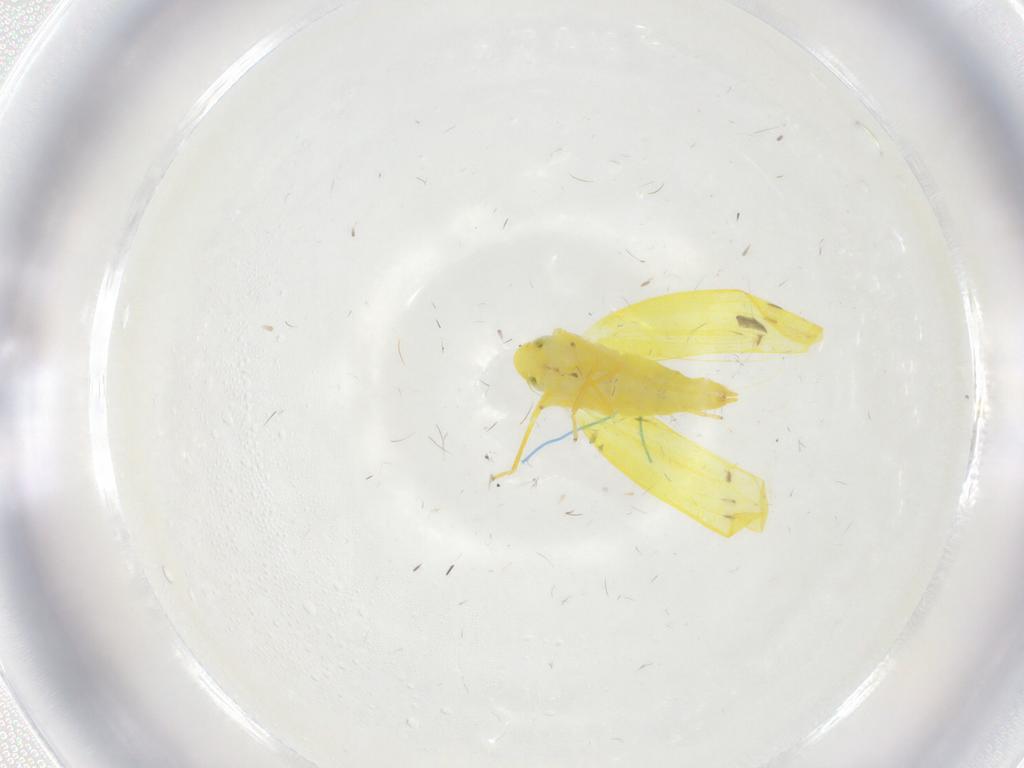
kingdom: Animalia
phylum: Arthropoda
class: Insecta
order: Hemiptera
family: Cicadellidae
